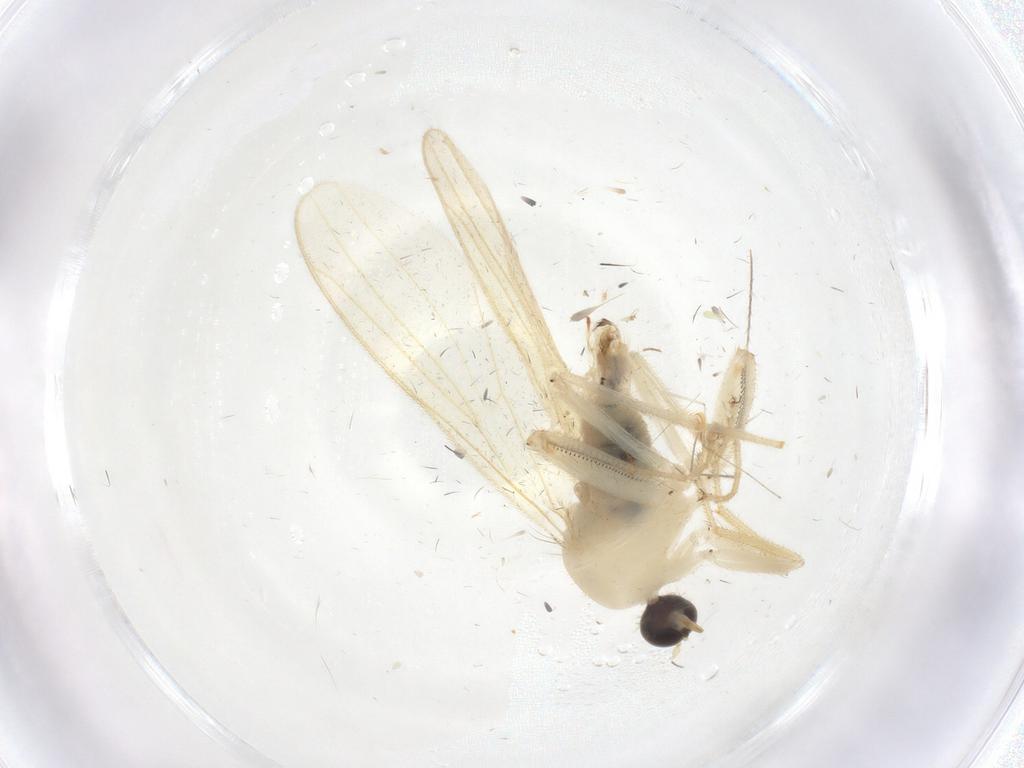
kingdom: Animalia
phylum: Arthropoda
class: Insecta
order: Diptera
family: Hybotidae
